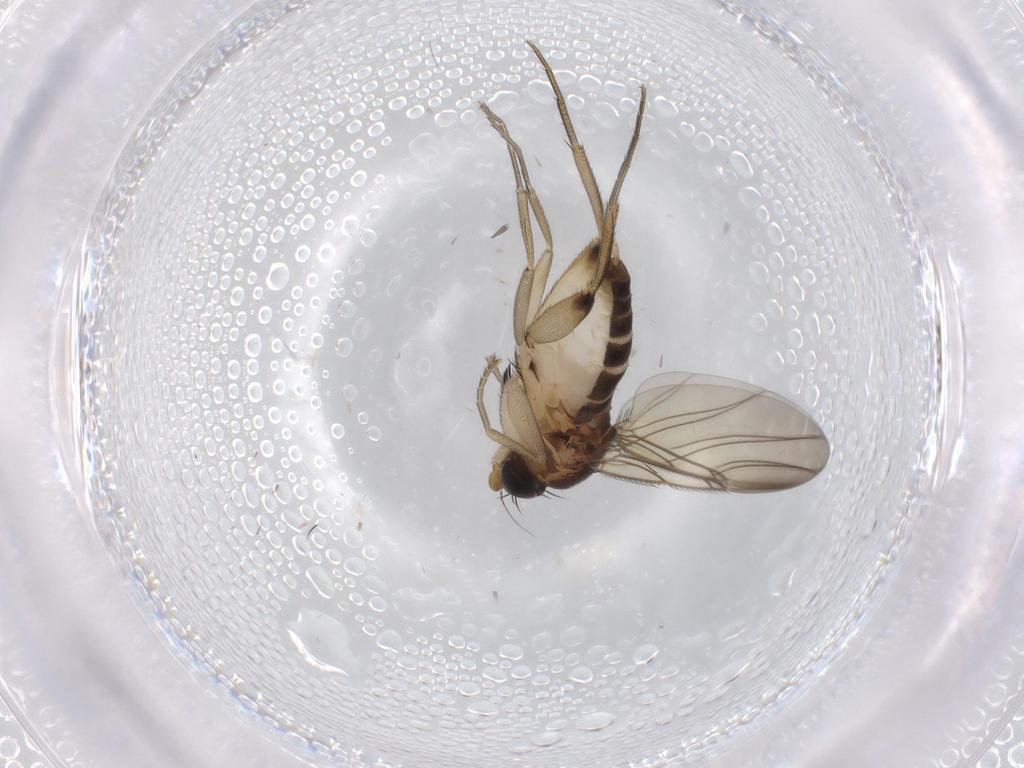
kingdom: Animalia
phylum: Arthropoda
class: Insecta
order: Diptera
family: Phoridae
